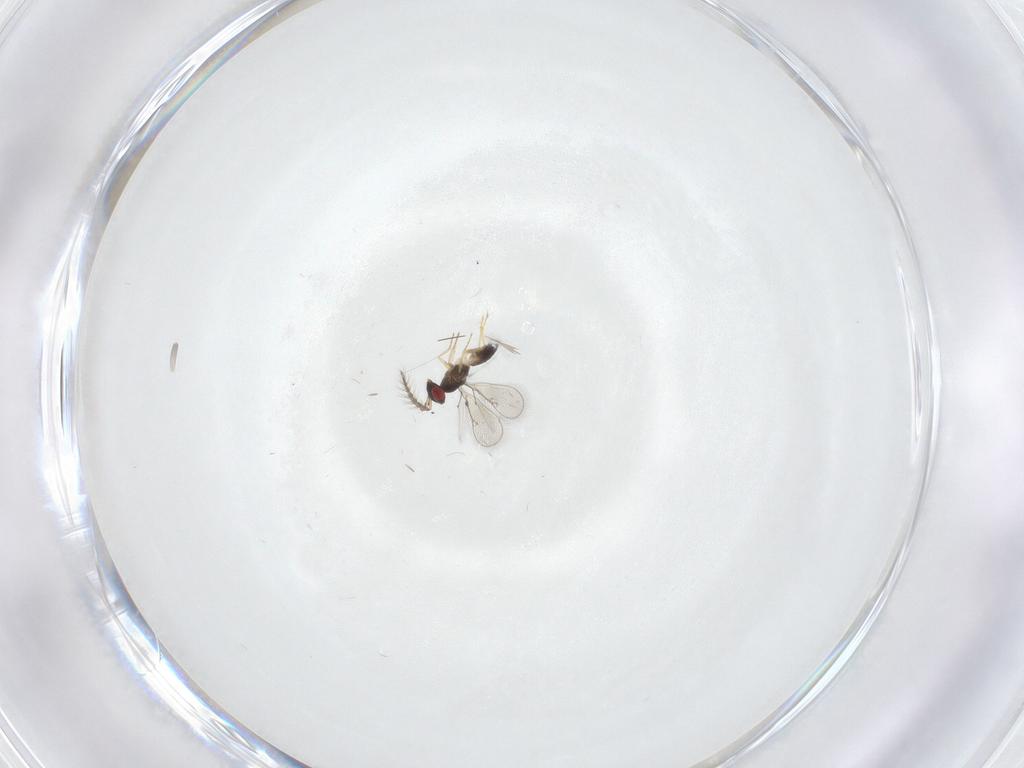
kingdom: Animalia
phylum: Arthropoda
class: Insecta
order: Hymenoptera
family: Eulophidae
